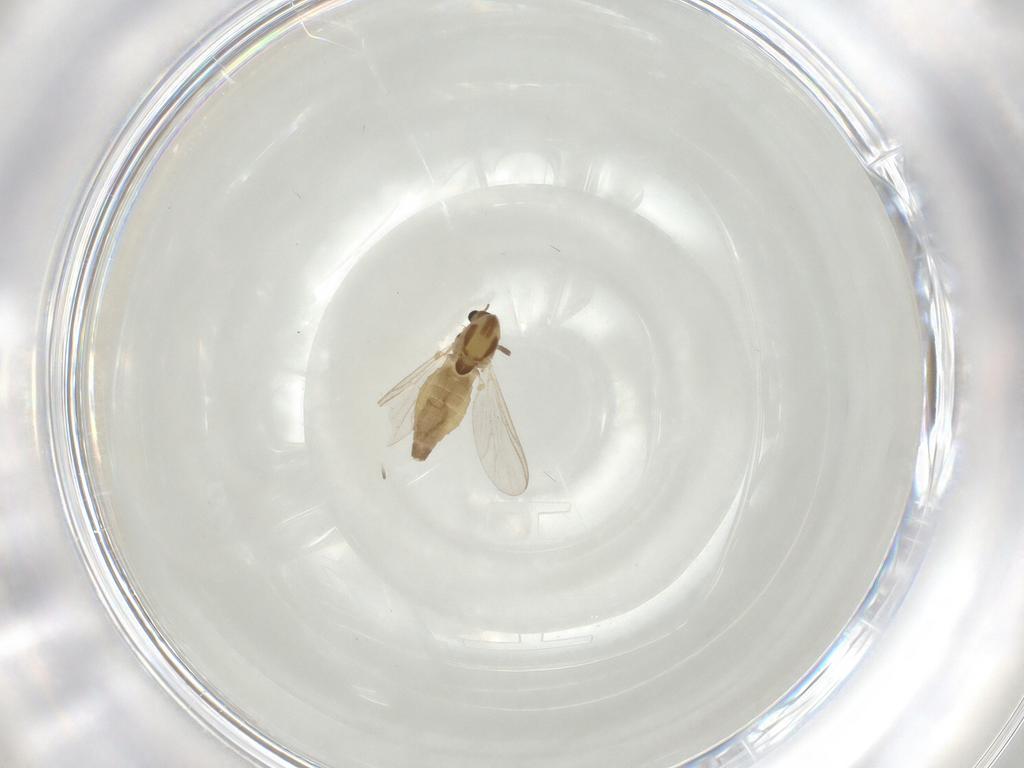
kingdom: Animalia
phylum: Arthropoda
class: Insecta
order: Diptera
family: Chironomidae
